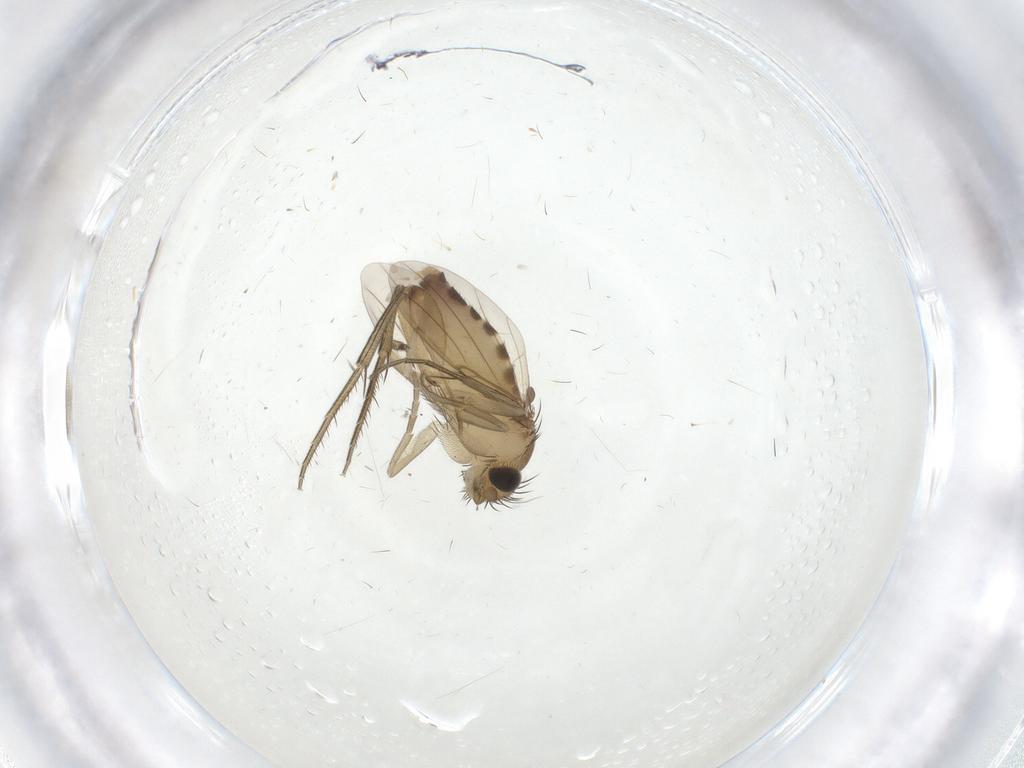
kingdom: Animalia
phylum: Arthropoda
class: Insecta
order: Diptera
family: Phoridae
